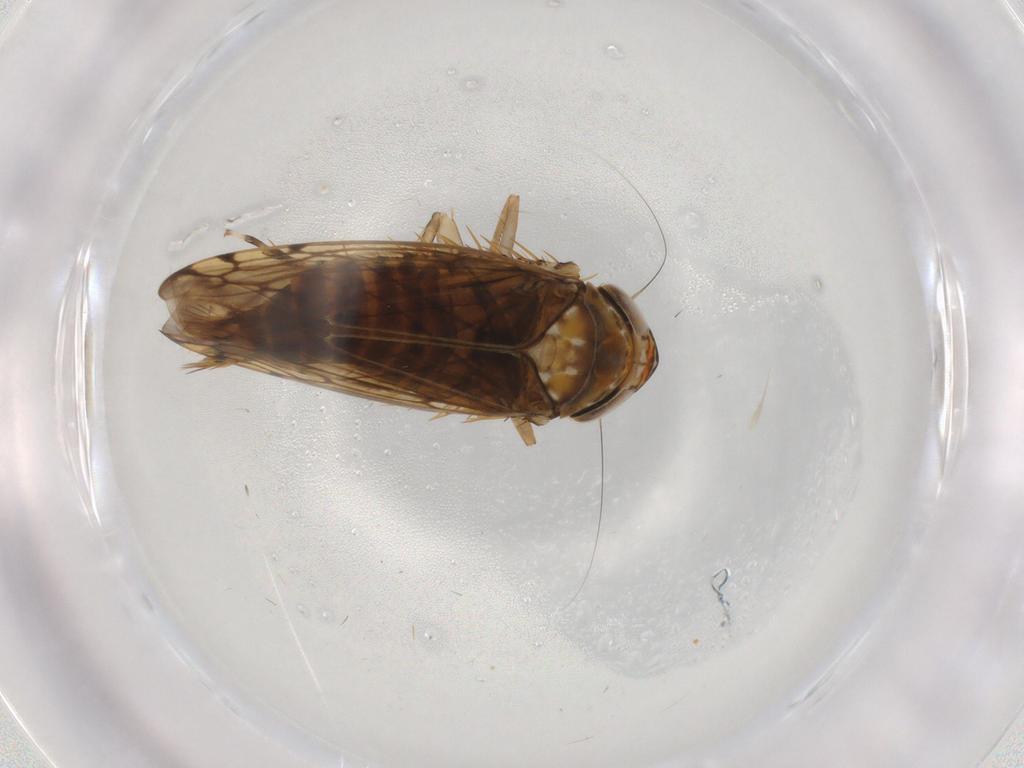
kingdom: Animalia
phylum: Arthropoda
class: Insecta
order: Hemiptera
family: Cicadellidae
